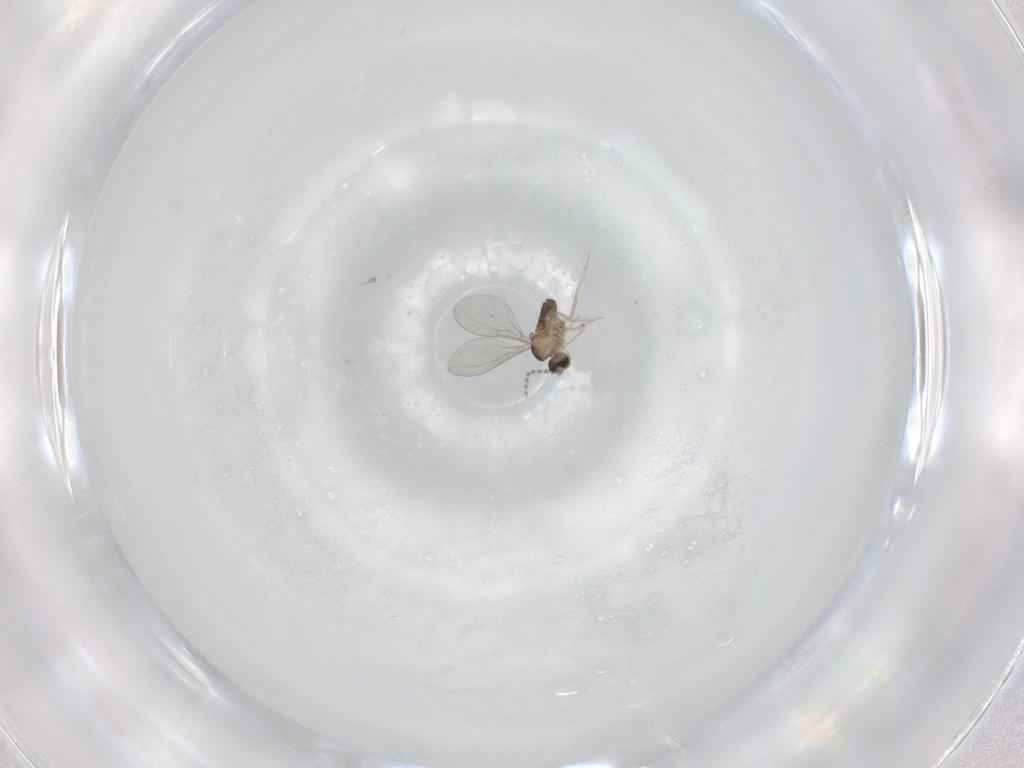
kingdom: Animalia
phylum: Arthropoda
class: Insecta
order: Diptera
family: Cecidomyiidae
